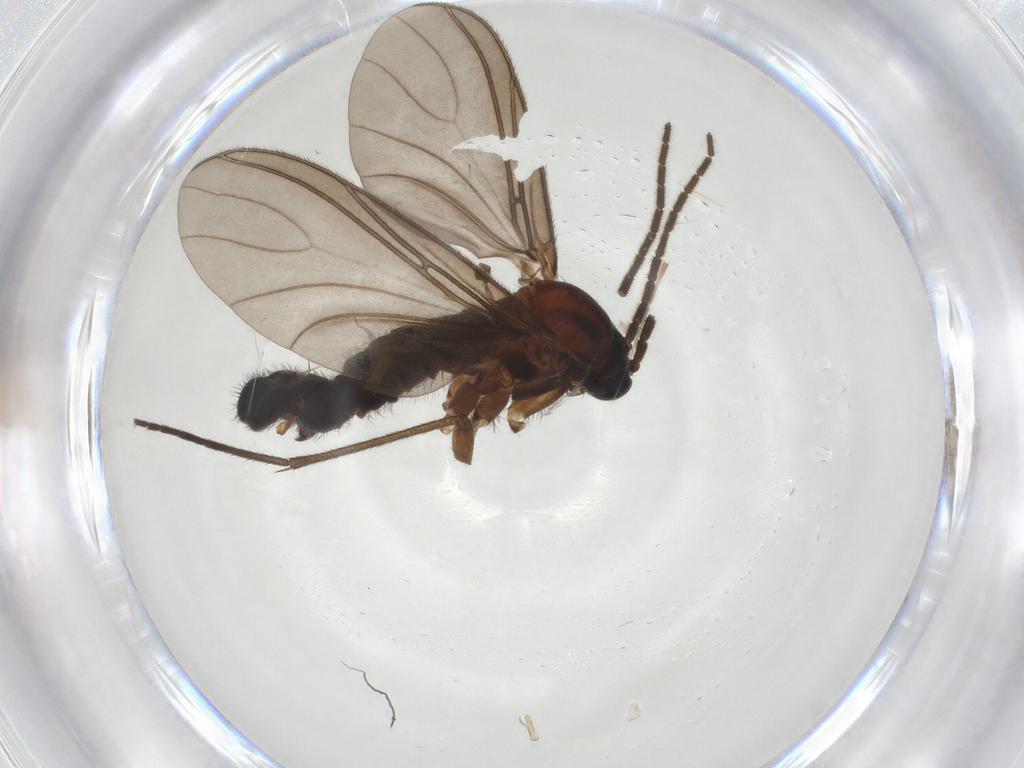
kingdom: Animalia
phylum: Arthropoda
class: Insecta
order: Diptera
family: Sciaridae
